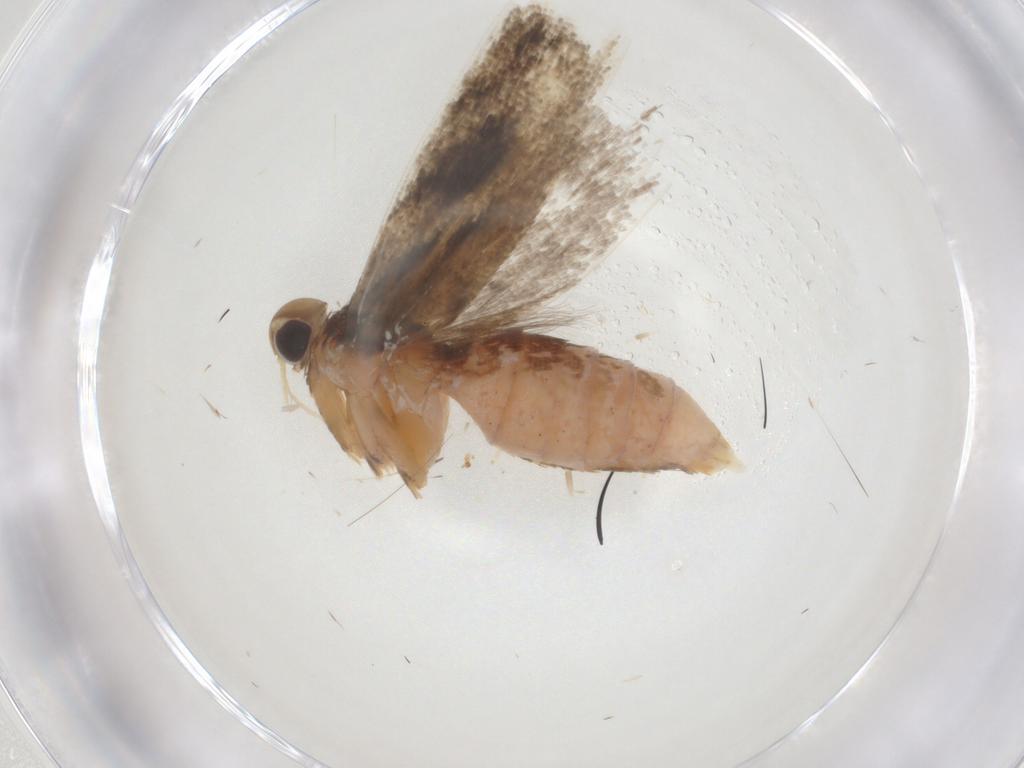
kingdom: Animalia
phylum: Arthropoda
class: Insecta
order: Lepidoptera
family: Gelechiidae
